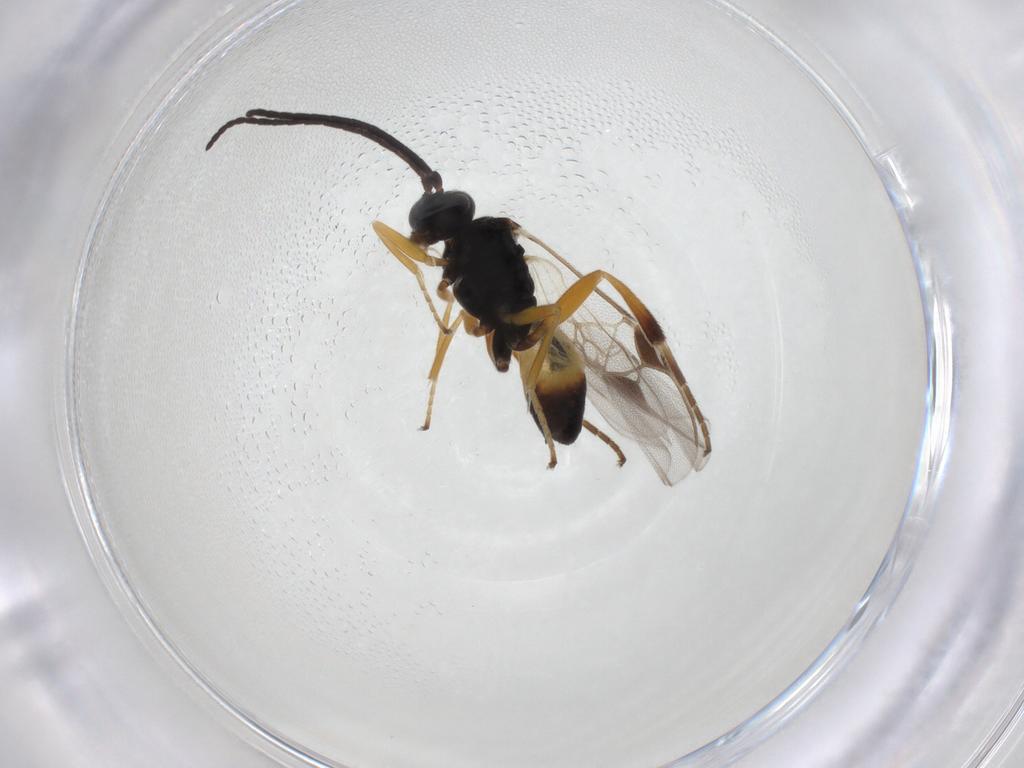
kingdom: Animalia
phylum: Arthropoda
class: Insecta
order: Hymenoptera
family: Braconidae
